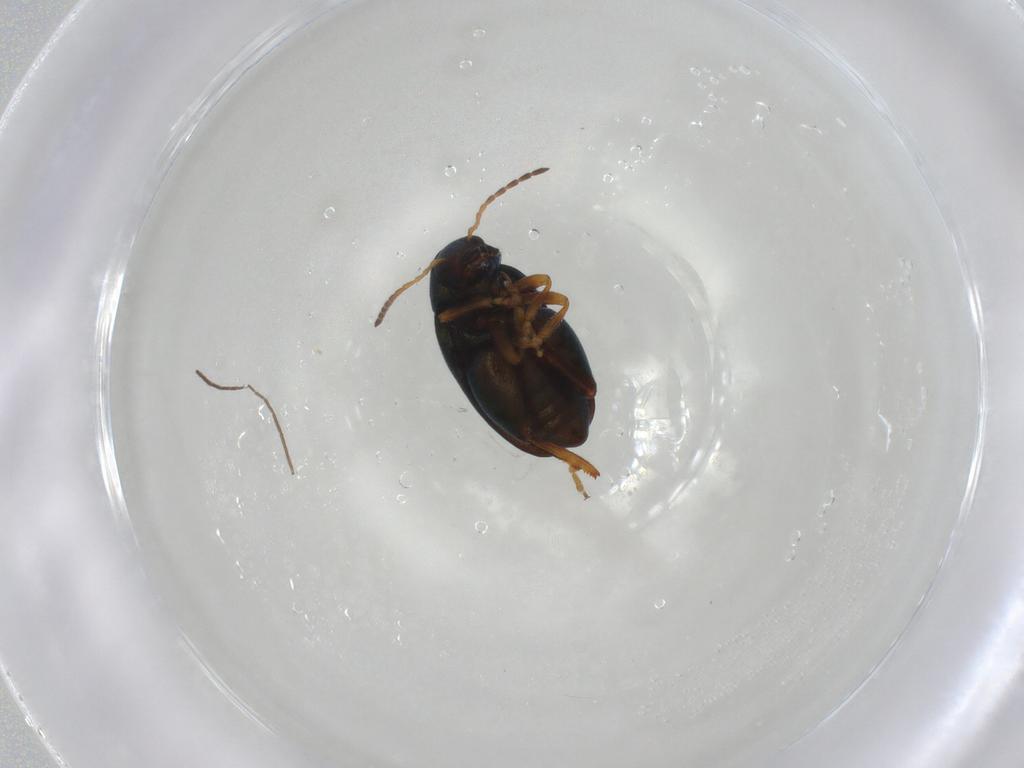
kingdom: Animalia
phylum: Arthropoda
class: Insecta
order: Coleoptera
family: Chrysomelidae
